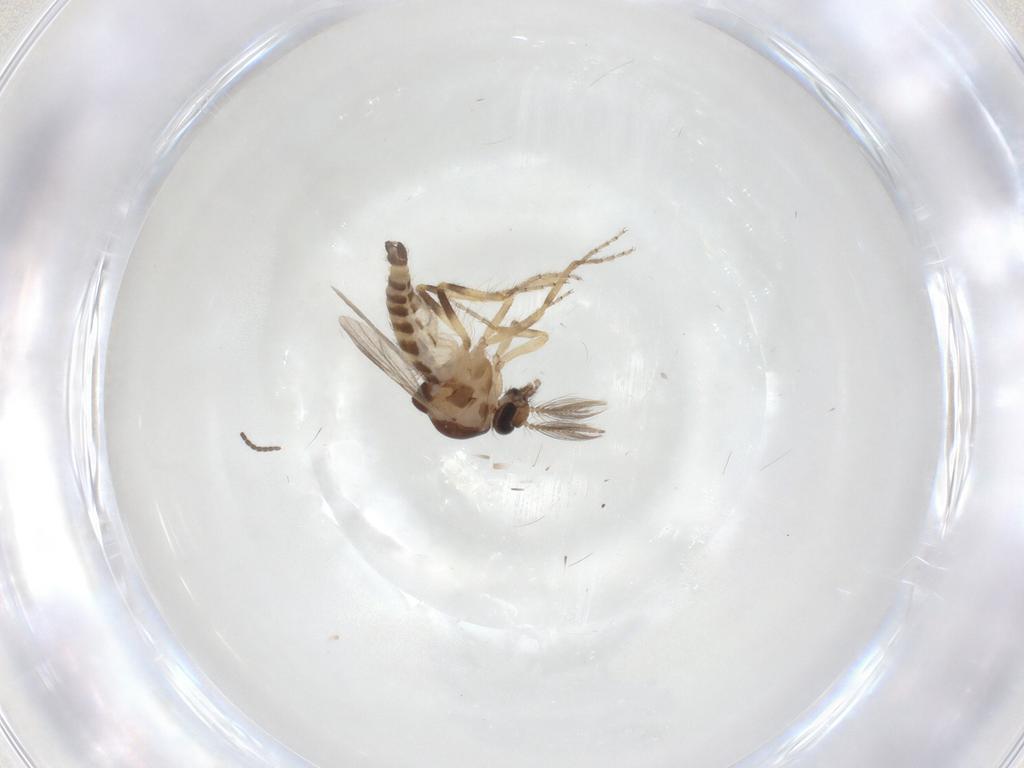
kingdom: Animalia
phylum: Arthropoda
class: Insecta
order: Diptera
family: Ceratopogonidae
